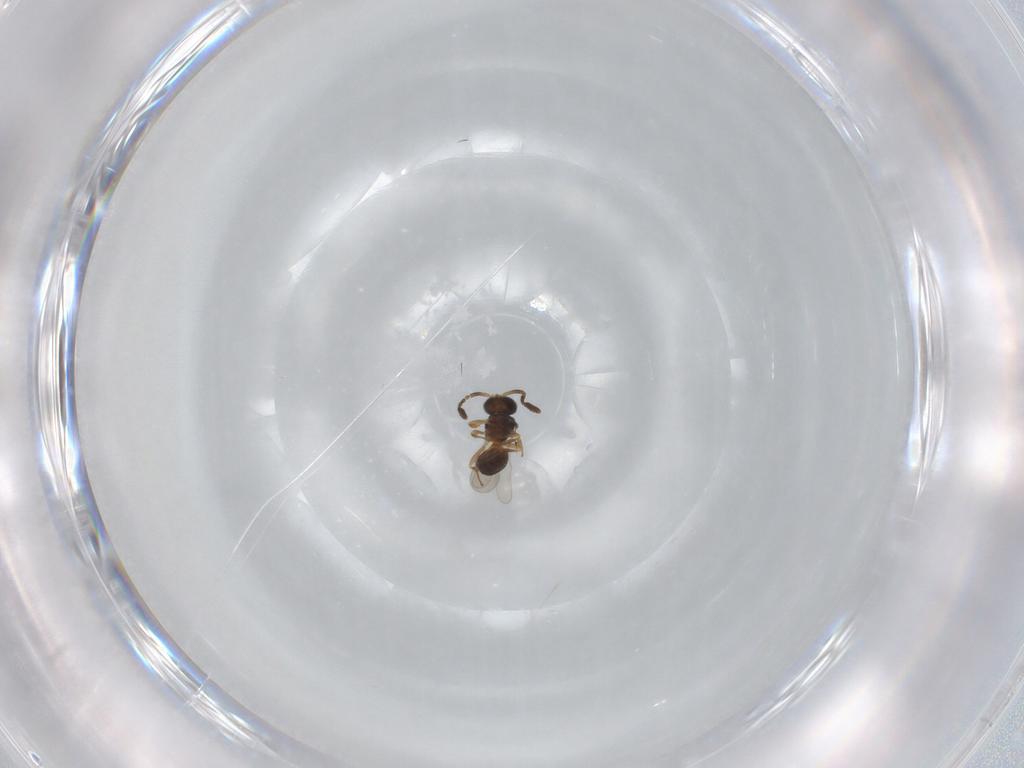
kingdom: Animalia
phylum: Arthropoda
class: Insecta
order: Hymenoptera
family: Scelionidae
